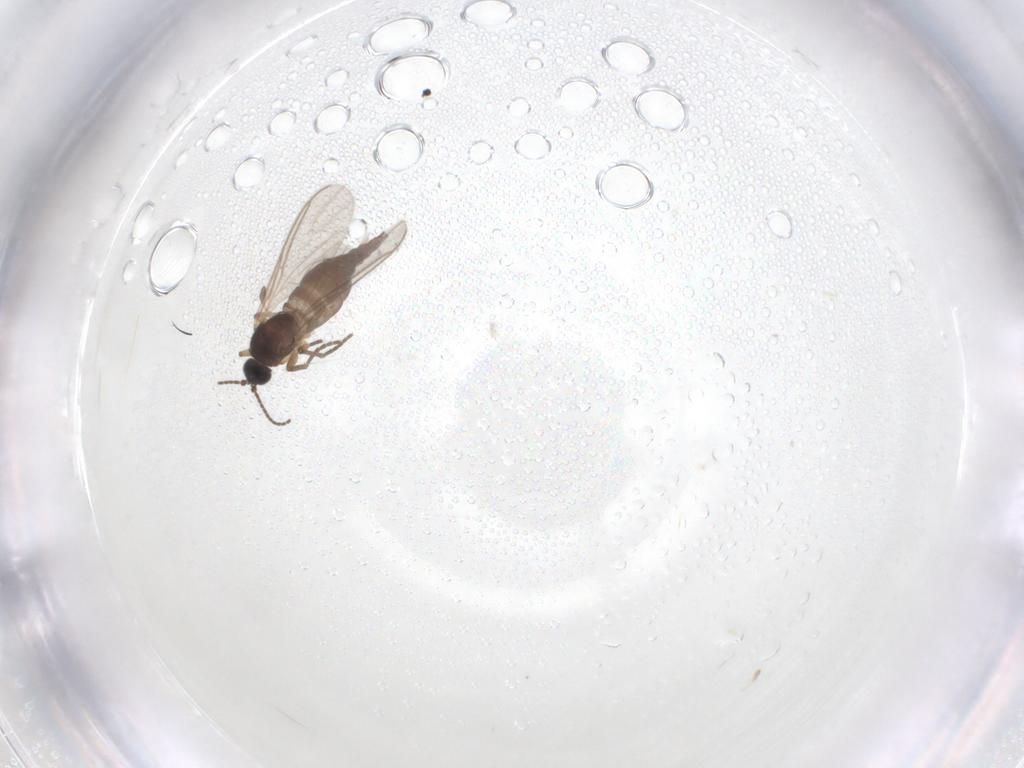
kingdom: Animalia
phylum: Arthropoda
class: Insecta
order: Diptera
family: Sciaridae
